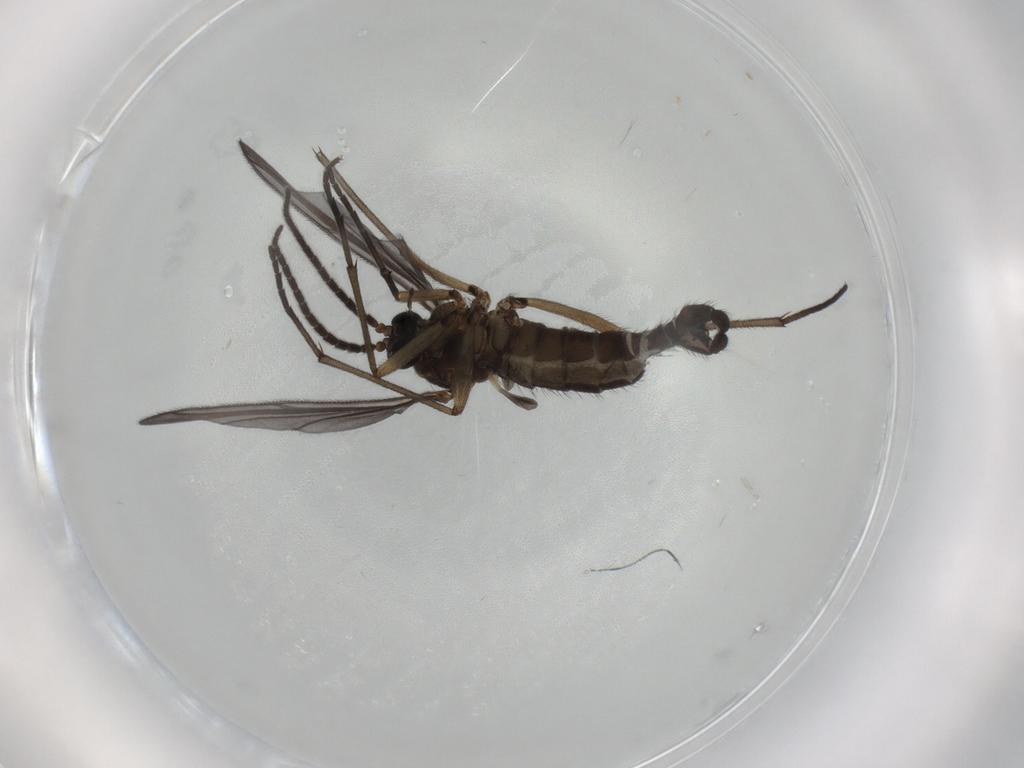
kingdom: Animalia
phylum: Arthropoda
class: Insecta
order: Diptera
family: Sciaridae
